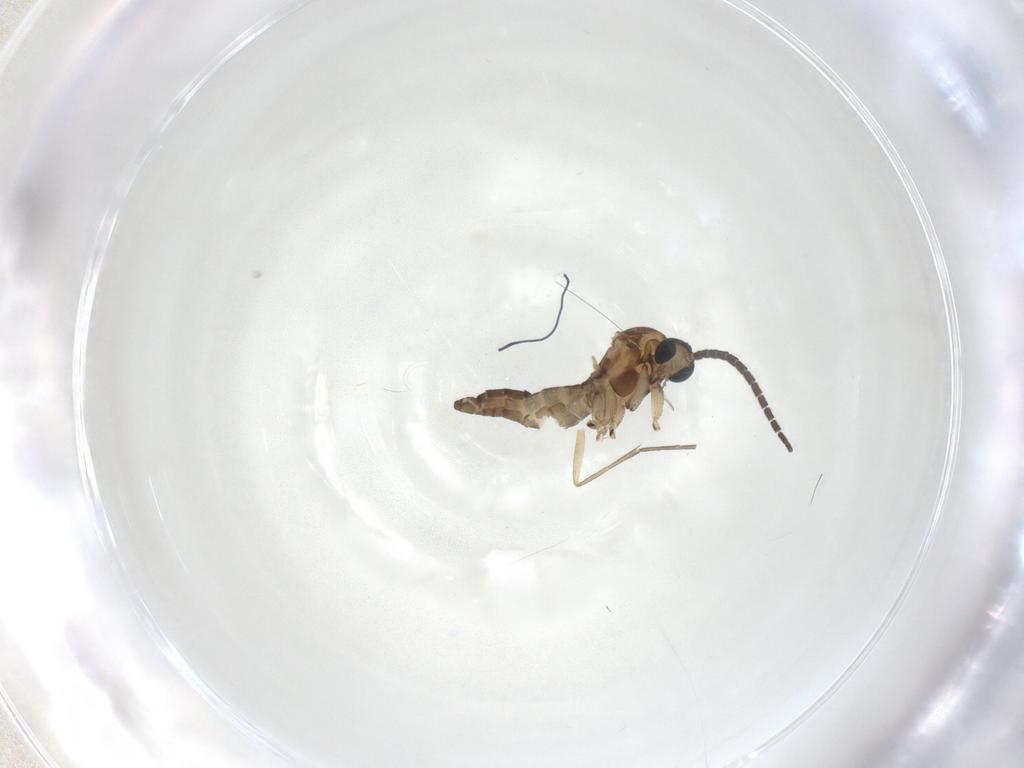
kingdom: Animalia
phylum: Arthropoda
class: Insecta
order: Diptera
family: Sciaridae
